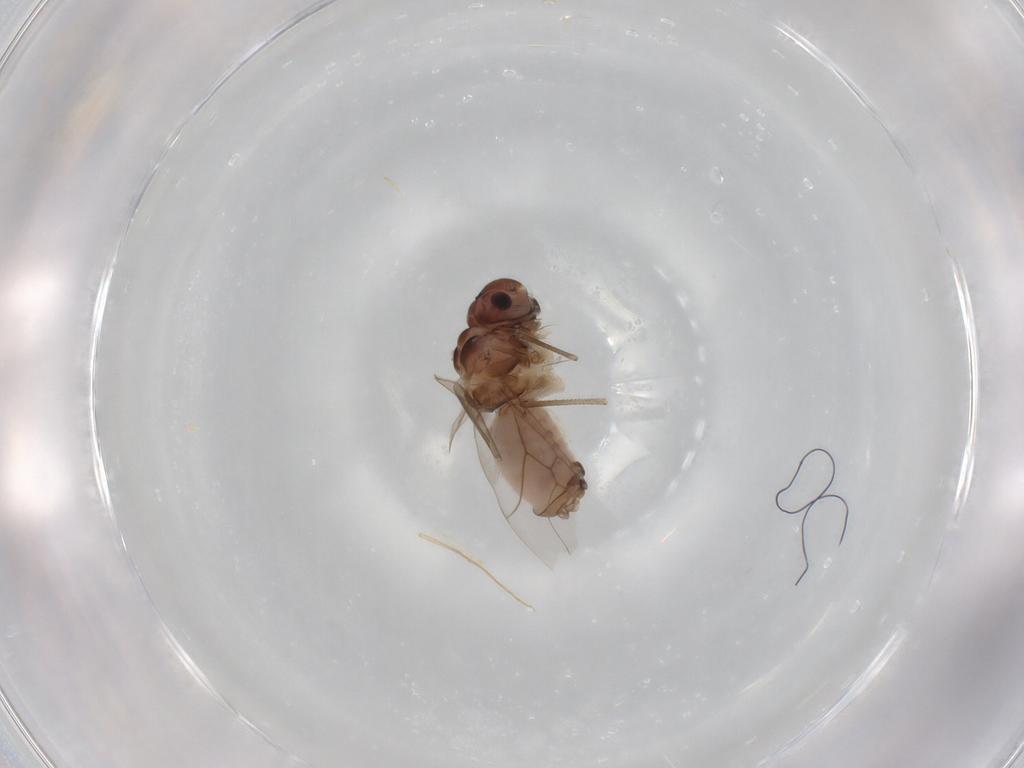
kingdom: Animalia
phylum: Arthropoda
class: Insecta
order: Psocodea
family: Peripsocidae
